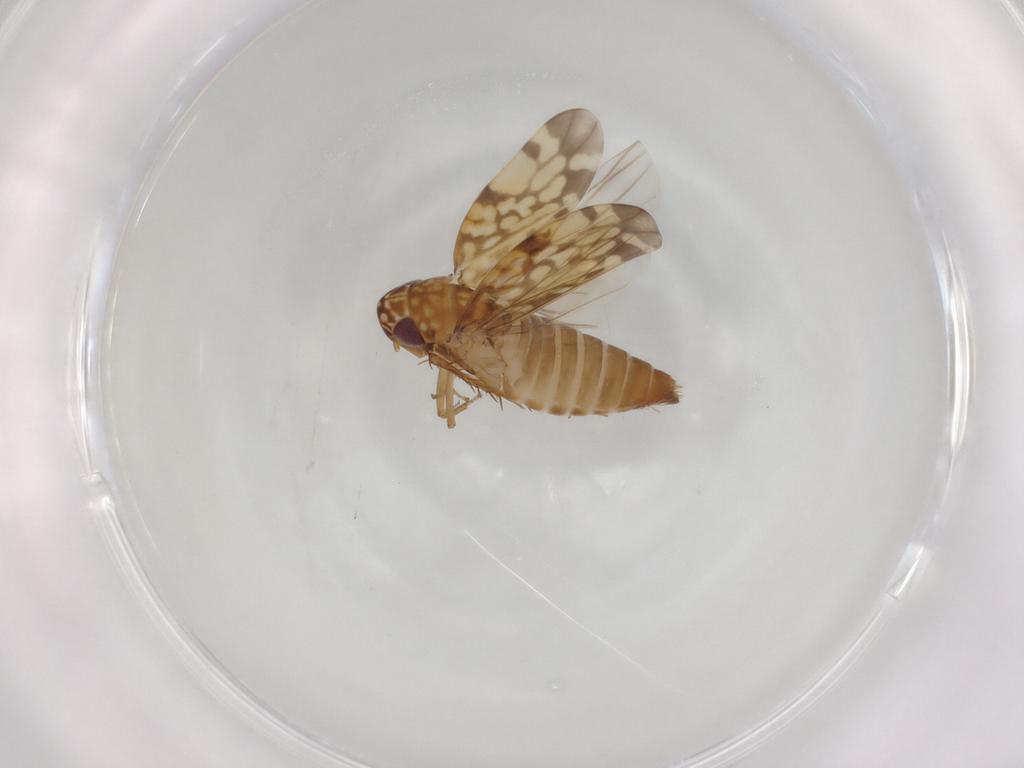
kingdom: Animalia
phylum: Arthropoda
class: Insecta
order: Hemiptera
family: Cicadellidae
